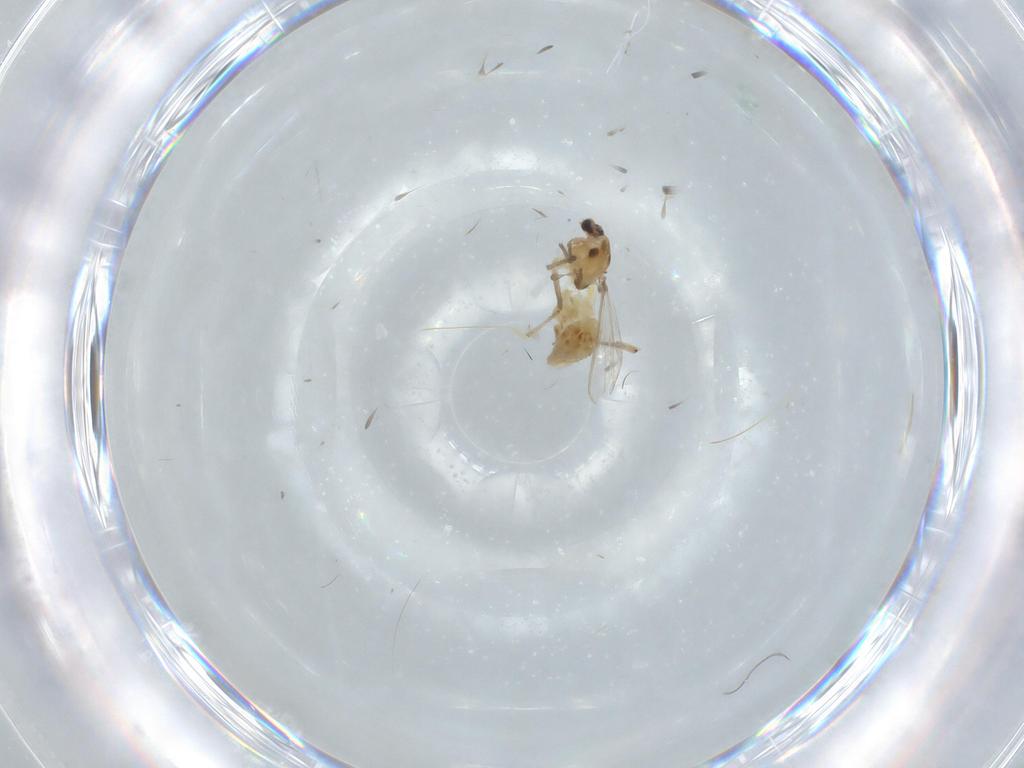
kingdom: Animalia
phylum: Arthropoda
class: Insecta
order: Diptera
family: Chironomidae
